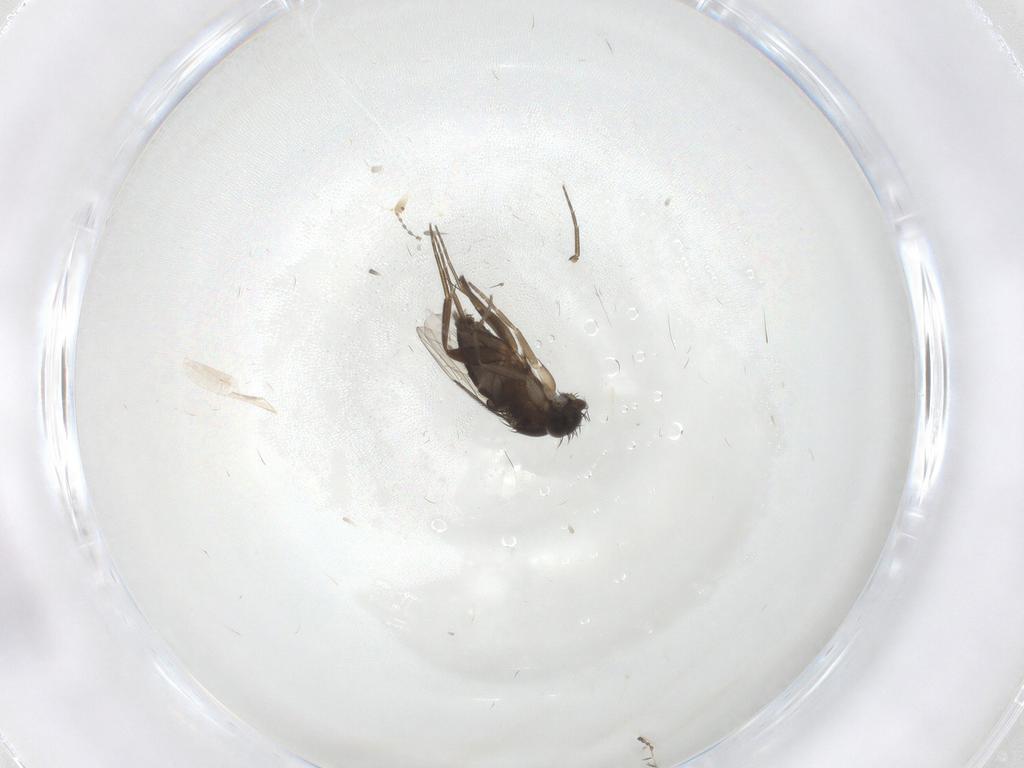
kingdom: Animalia
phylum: Arthropoda
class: Insecta
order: Diptera
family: Phoridae
